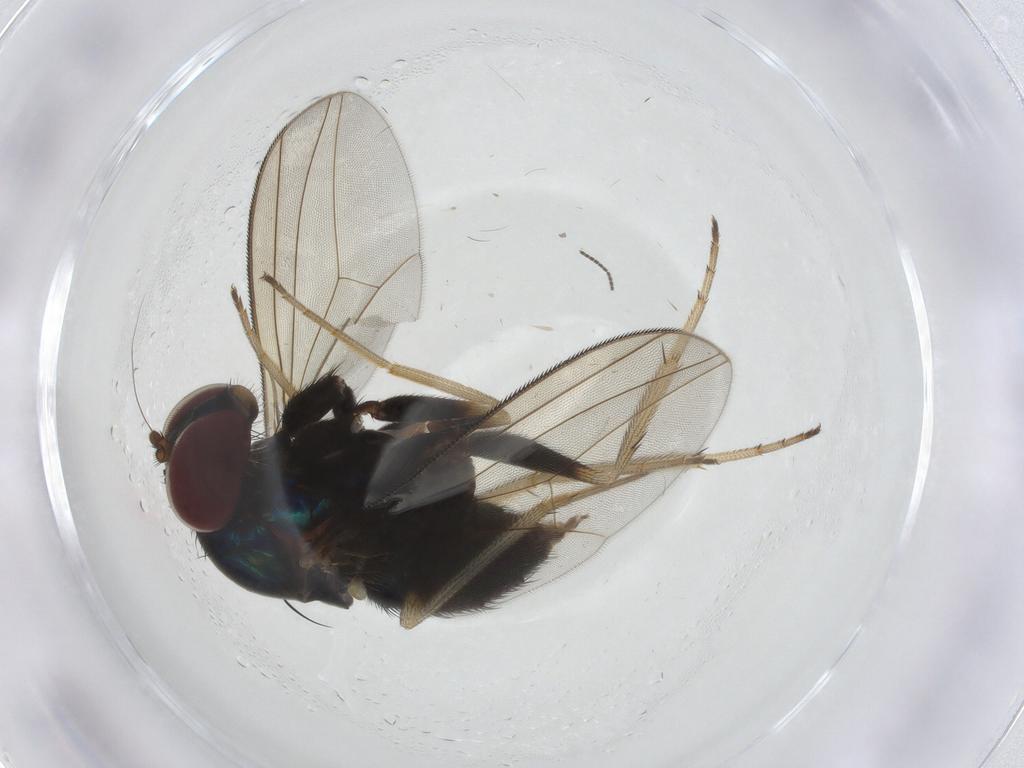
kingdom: Animalia
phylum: Arthropoda
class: Insecta
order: Diptera
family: Dolichopodidae
